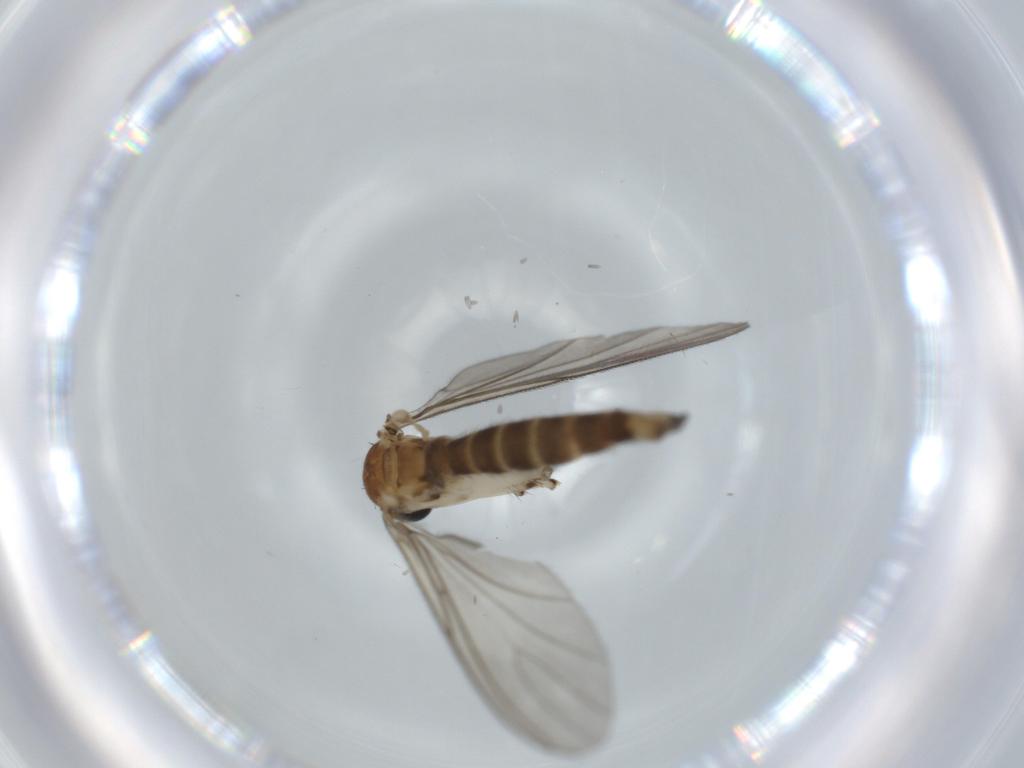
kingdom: Animalia
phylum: Arthropoda
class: Insecta
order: Diptera
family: Sciaridae
